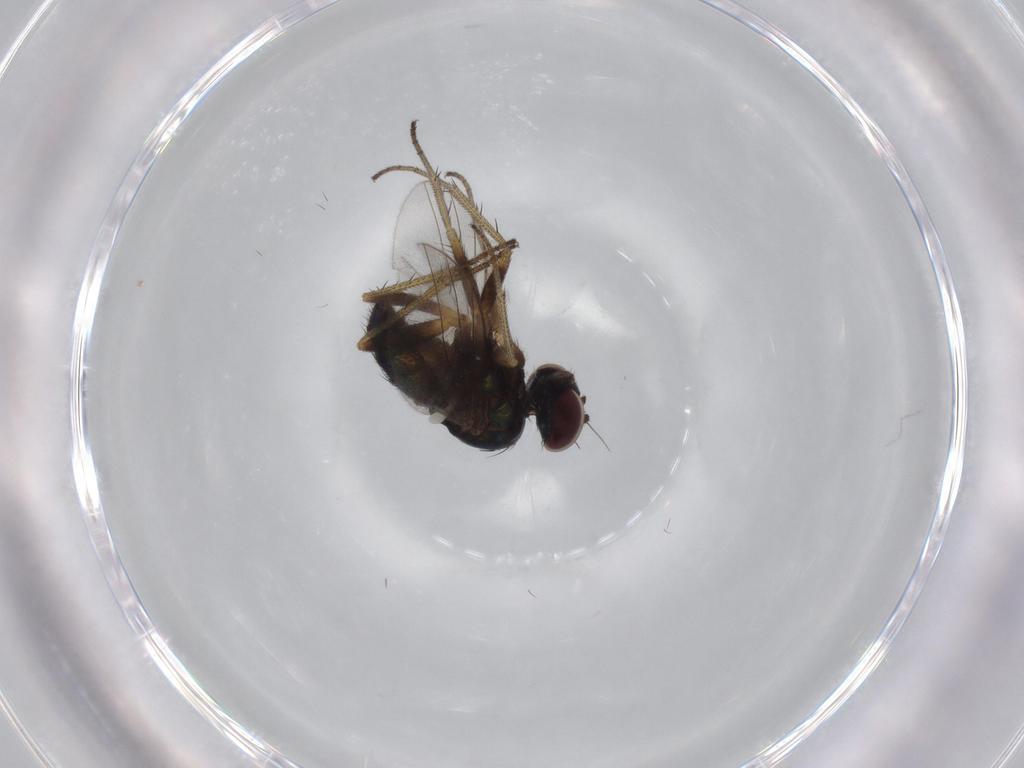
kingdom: Animalia
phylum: Arthropoda
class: Insecta
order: Diptera
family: Dolichopodidae
